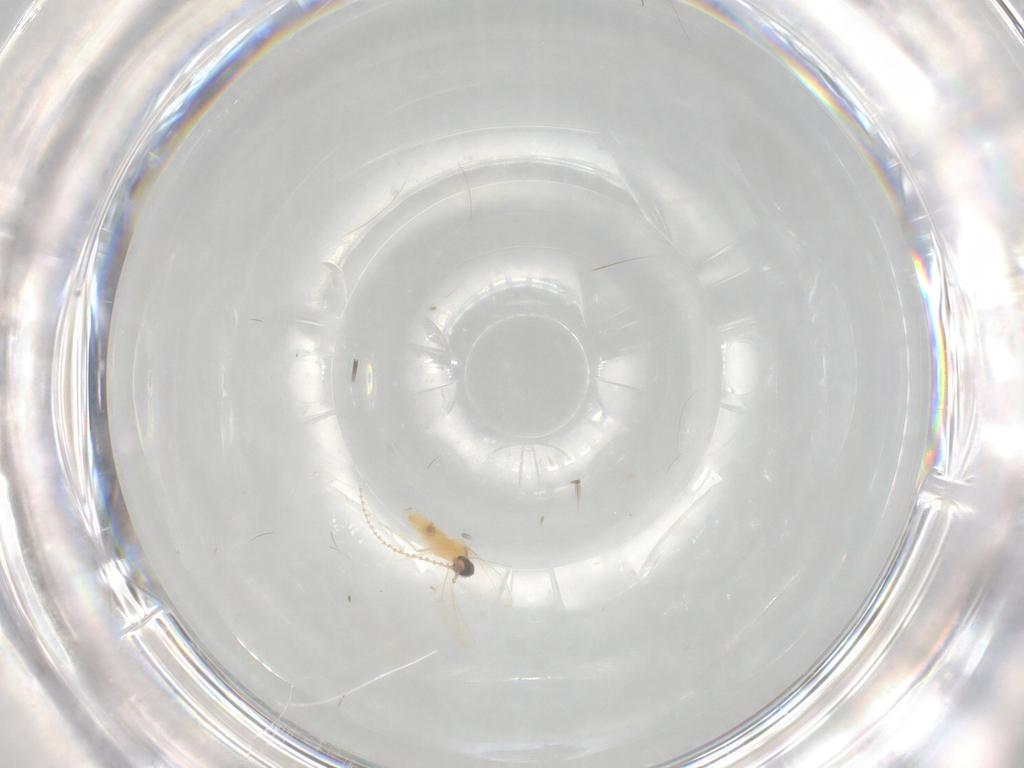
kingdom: Animalia
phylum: Arthropoda
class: Insecta
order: Diptera
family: Cecidomyiidae
